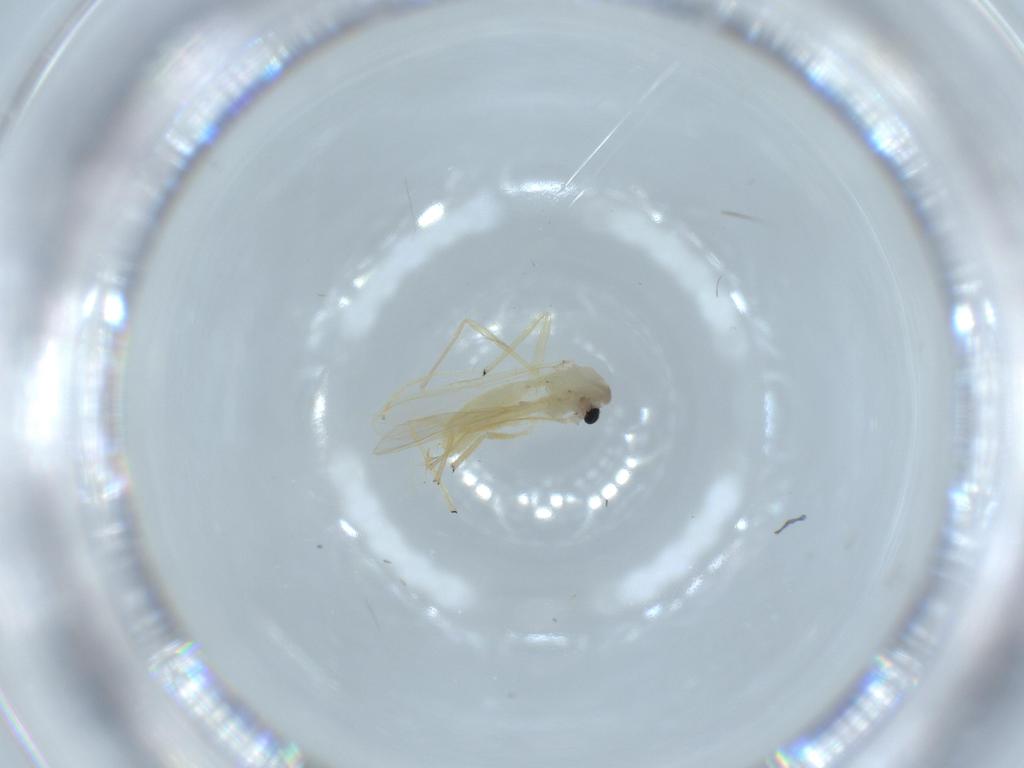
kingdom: Animalia
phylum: Arthropoda
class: Insecta
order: Diptera
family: Chironomidae
